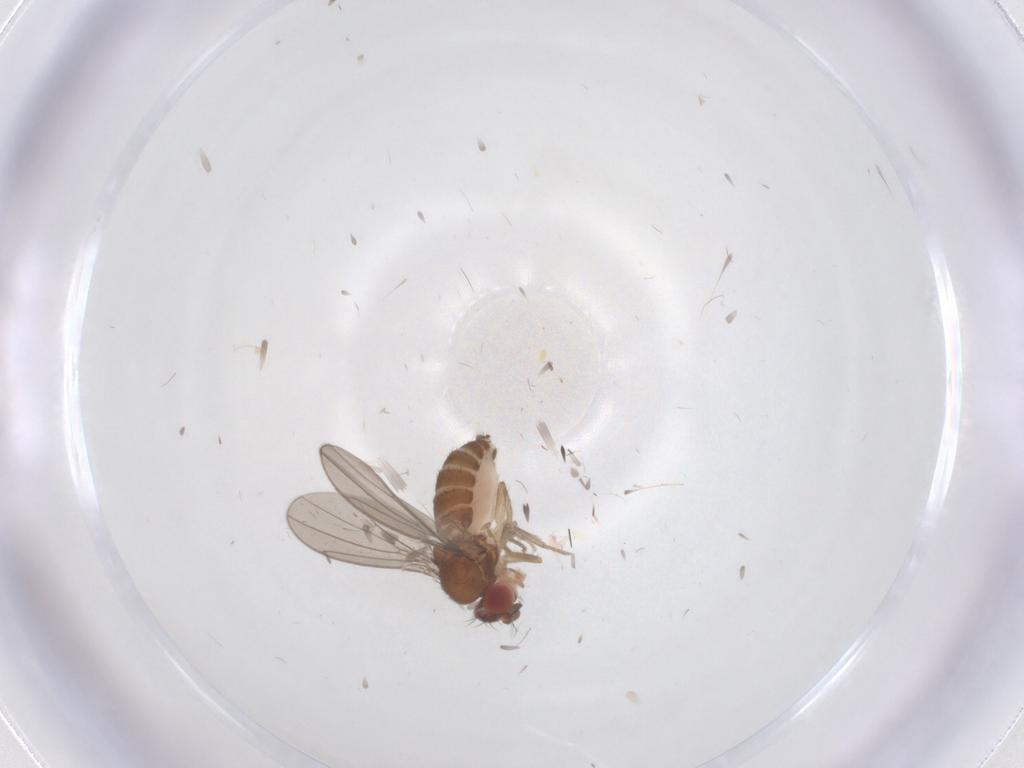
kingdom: Animalia
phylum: Arthropoda
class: Insecta
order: Diptera
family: Drosophilidae
